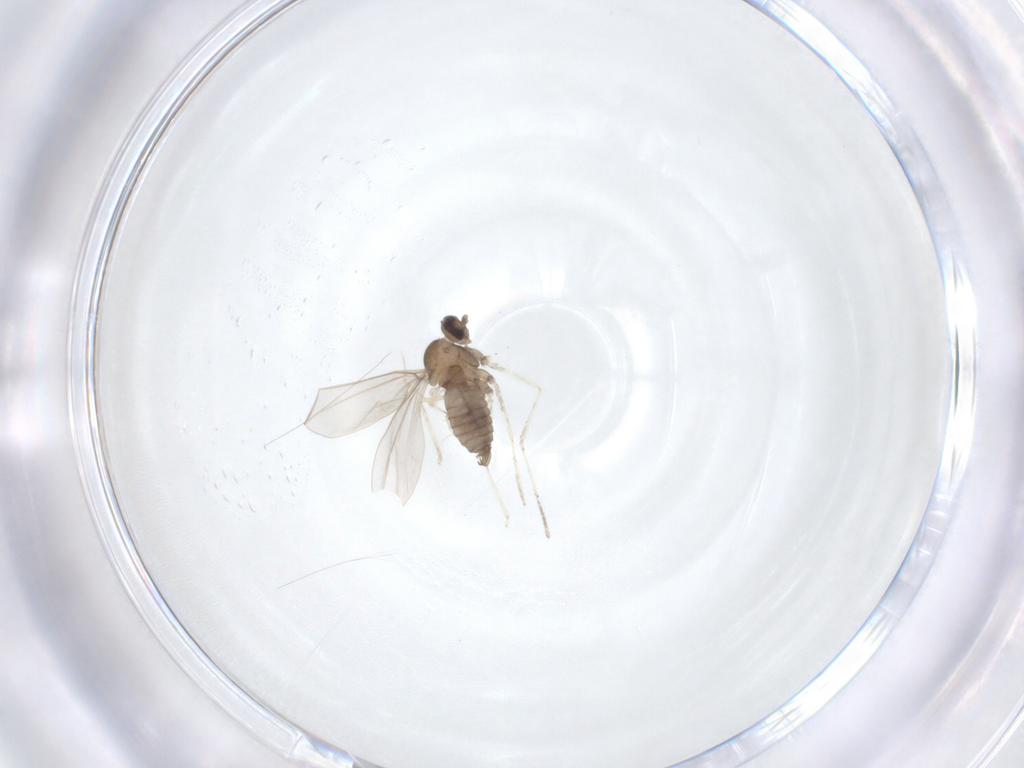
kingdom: Animalia
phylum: Arthropoda
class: Insecta
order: Diptera
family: Cecidomyiidae
